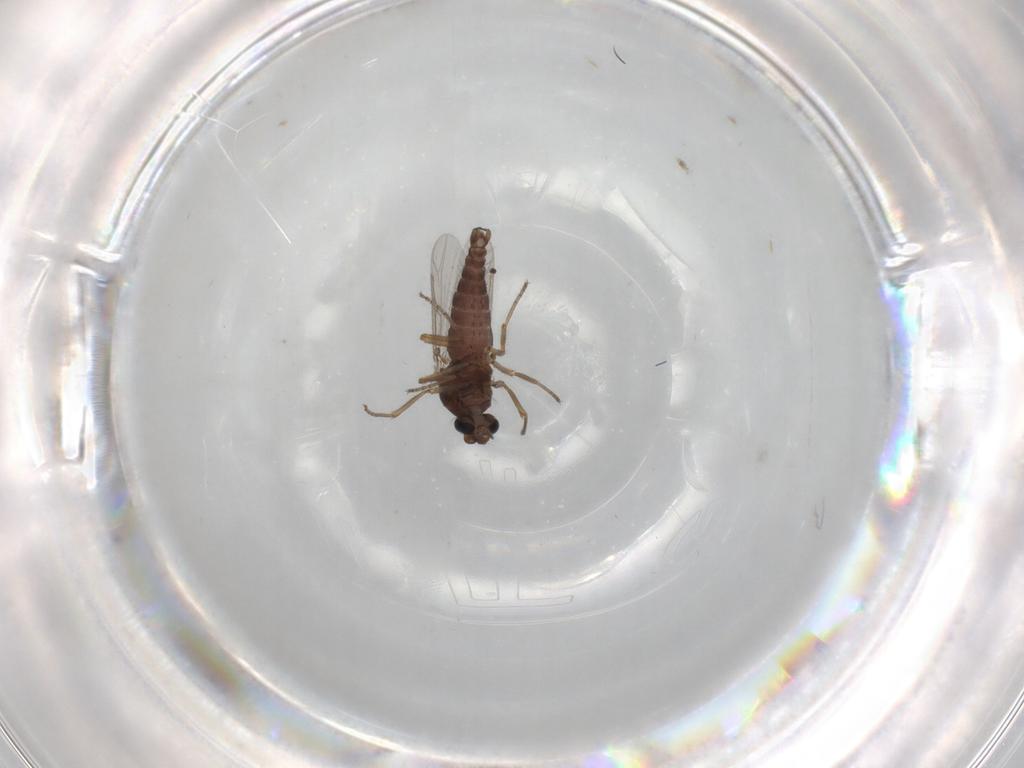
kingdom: Animalia
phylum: Arthropoda
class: Insecta
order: Diptera
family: Ceratopogonidae
